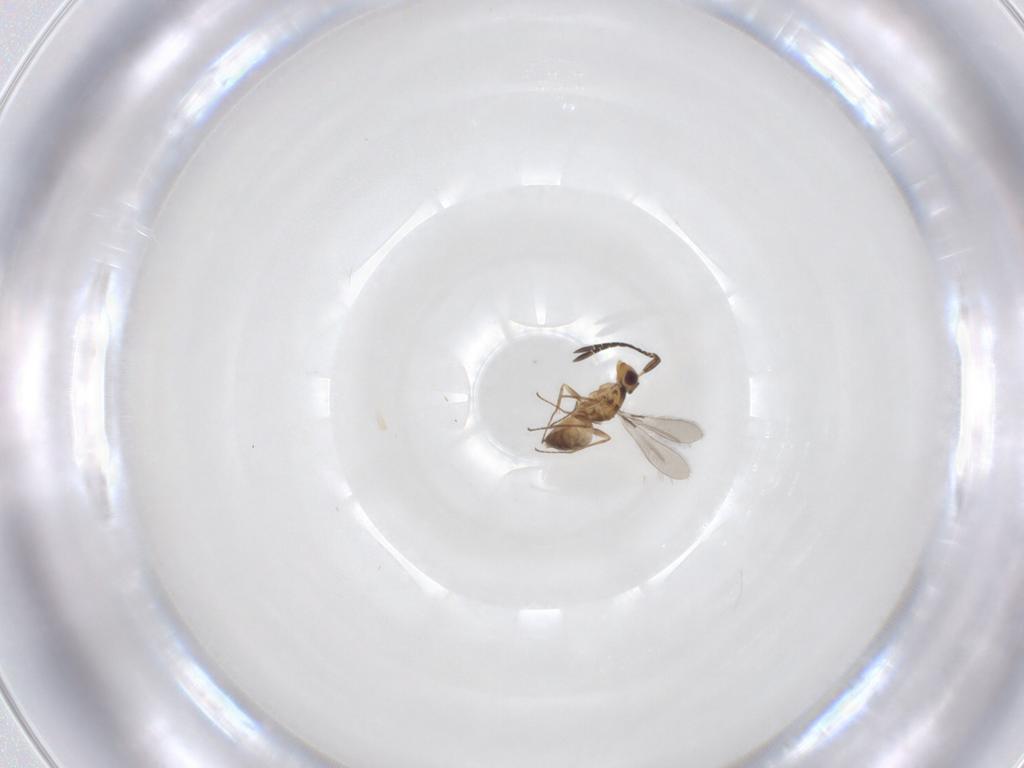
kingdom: Animalia
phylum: Arthropoda
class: Insecta
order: Hymenoptera
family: Mymaridae
